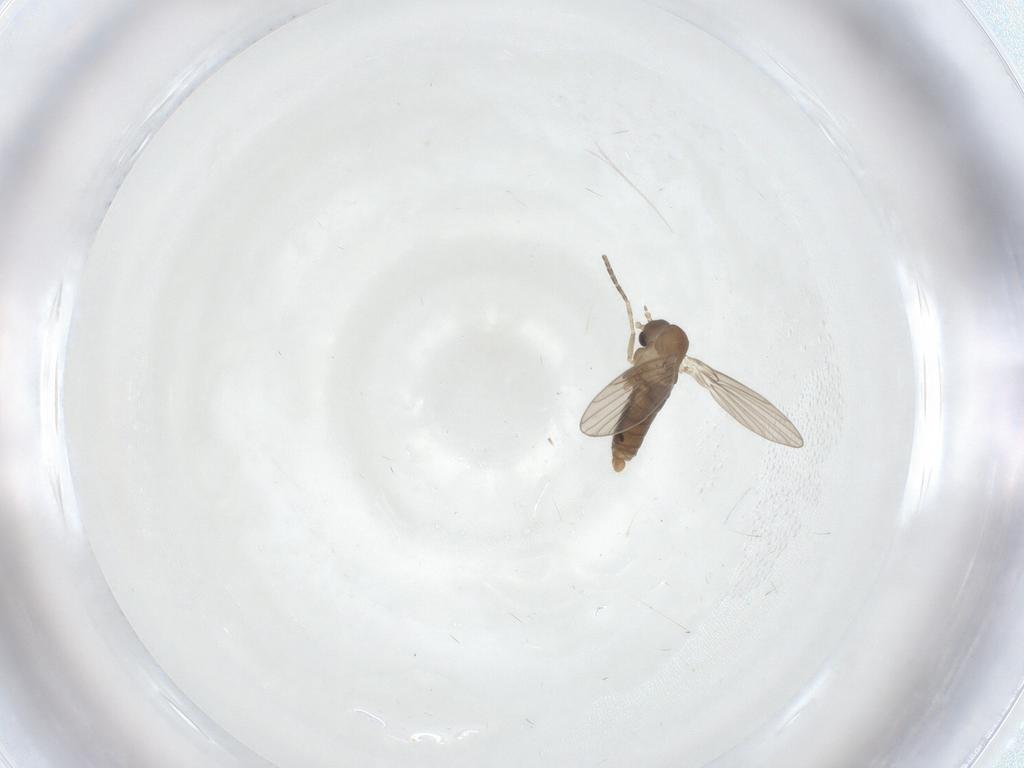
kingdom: Animalia
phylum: Arthropoda
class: Insecta
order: Diptera
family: Psychodidae
